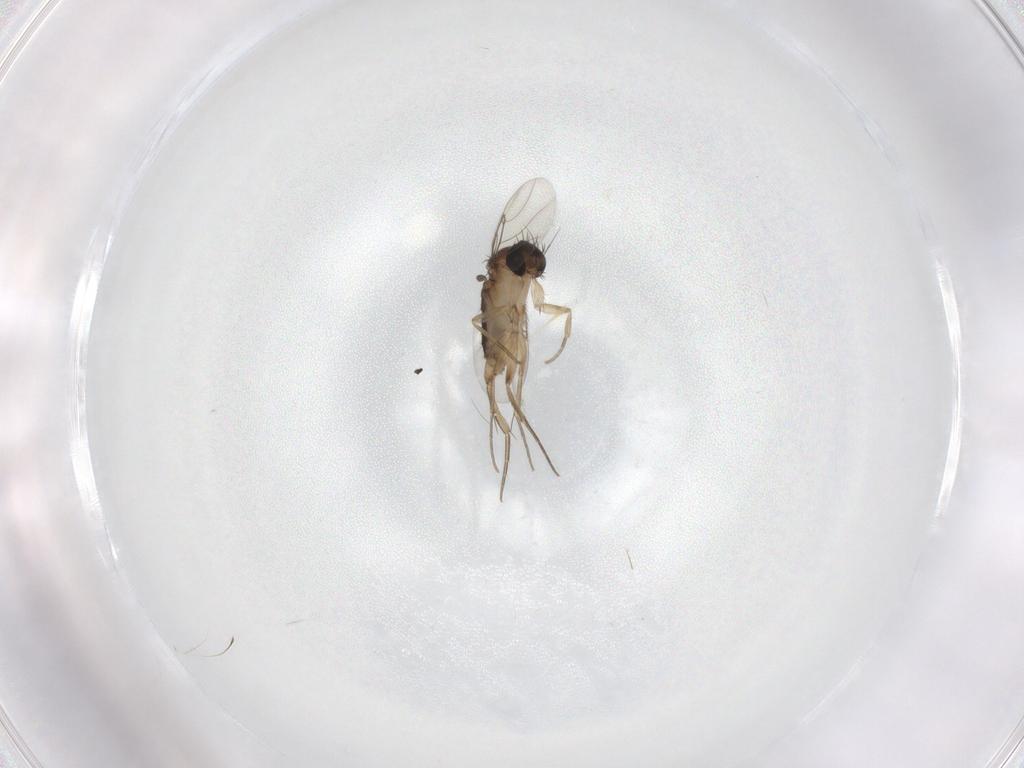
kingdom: Animalia
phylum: Arthropoda
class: Insecta
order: Diptera
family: Phoridae
